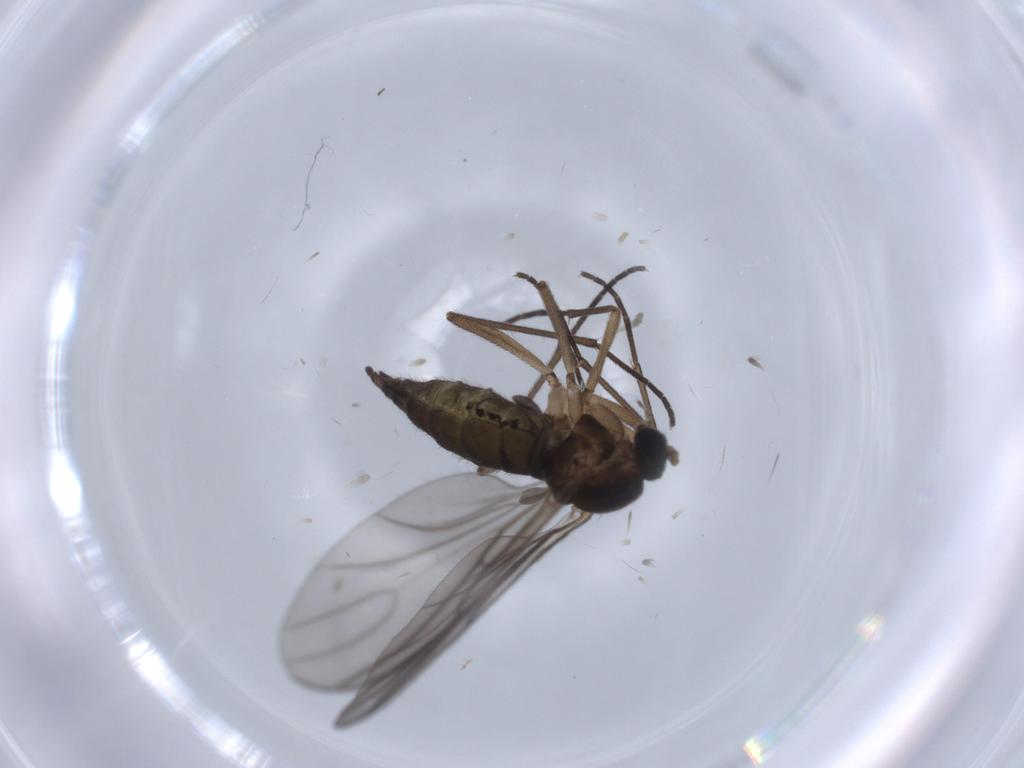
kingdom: Animalia
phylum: Arthropoda
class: Insecta
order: Diptera
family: Sciaridae
